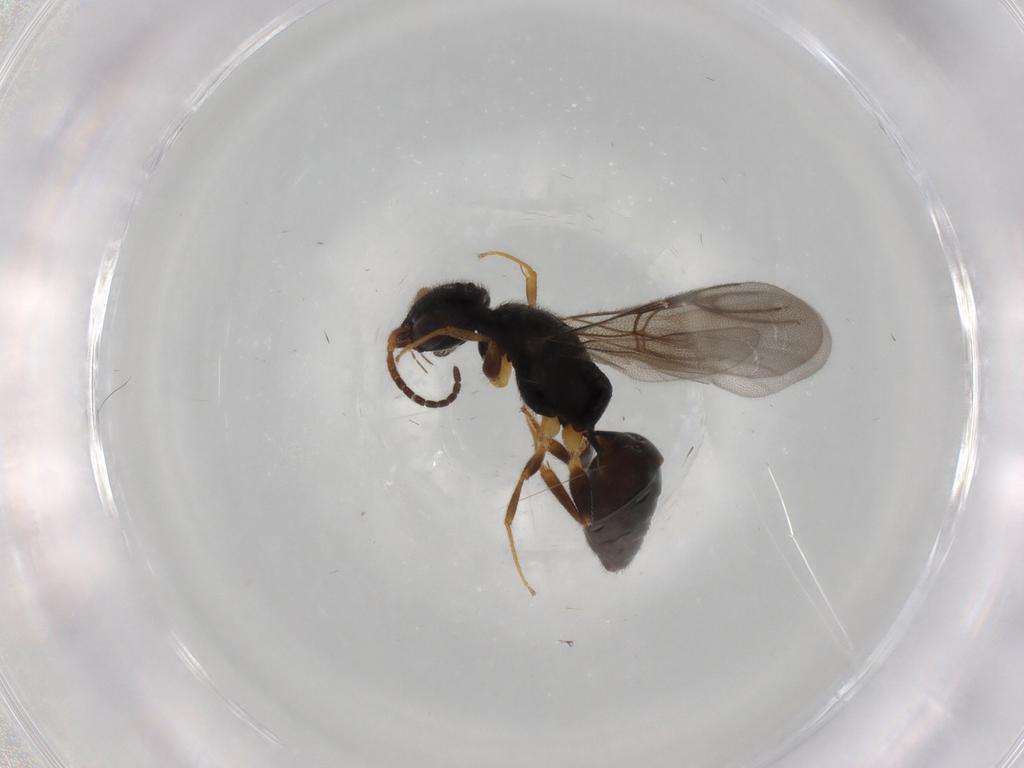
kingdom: Animalia
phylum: Arthropoda
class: Insecta
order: Hymenoptera
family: Bethylidae
